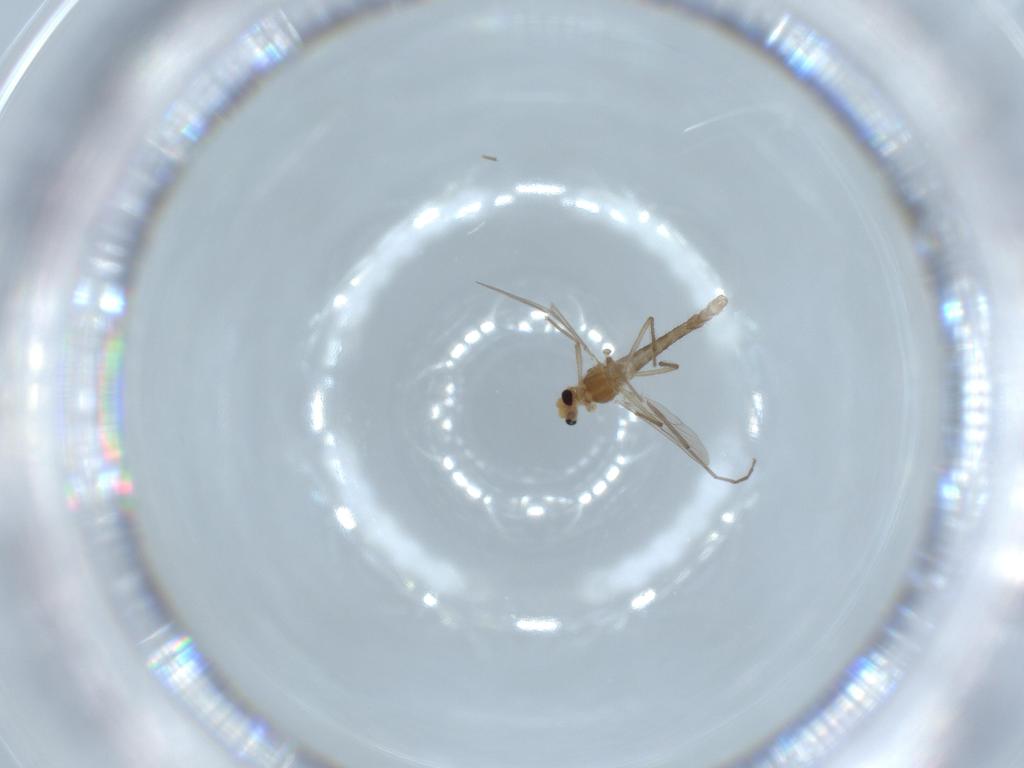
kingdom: Animalia
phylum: Arthropoda
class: Insecta
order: Diptera
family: Chironomidae
